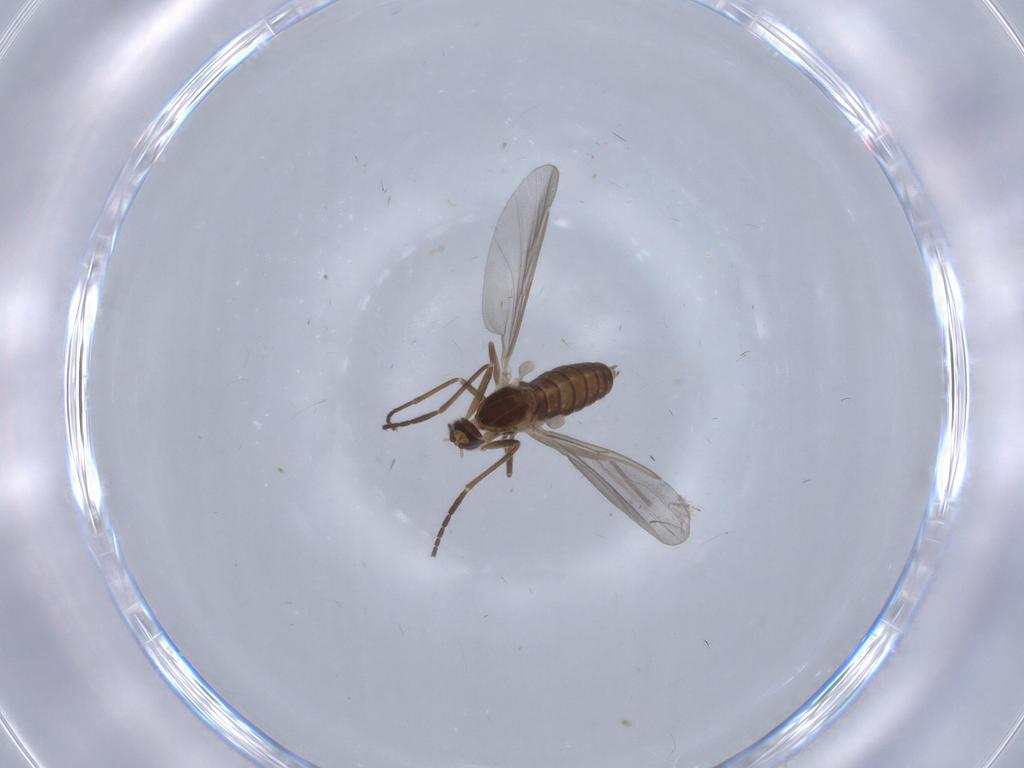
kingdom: Animalia
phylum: Arthropoda
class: Insecta
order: Diptera
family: Cecidomyiidae
